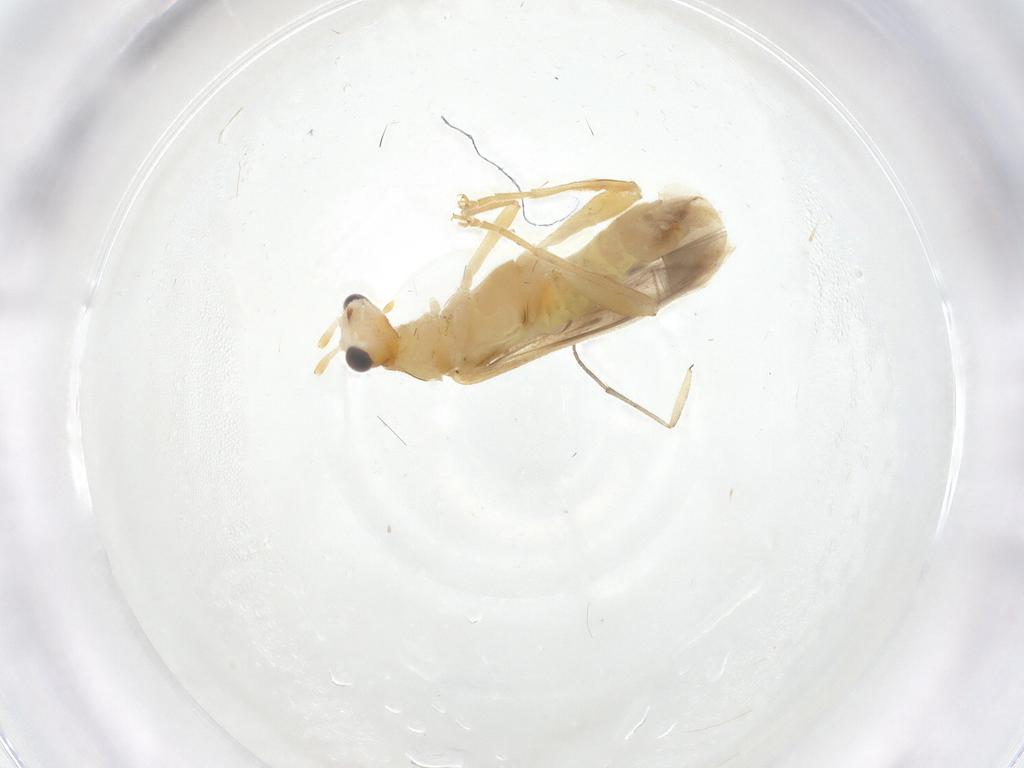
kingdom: Animalia
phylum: Arthropoda
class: Insecta
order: Coleoptera
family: Cantharidae
